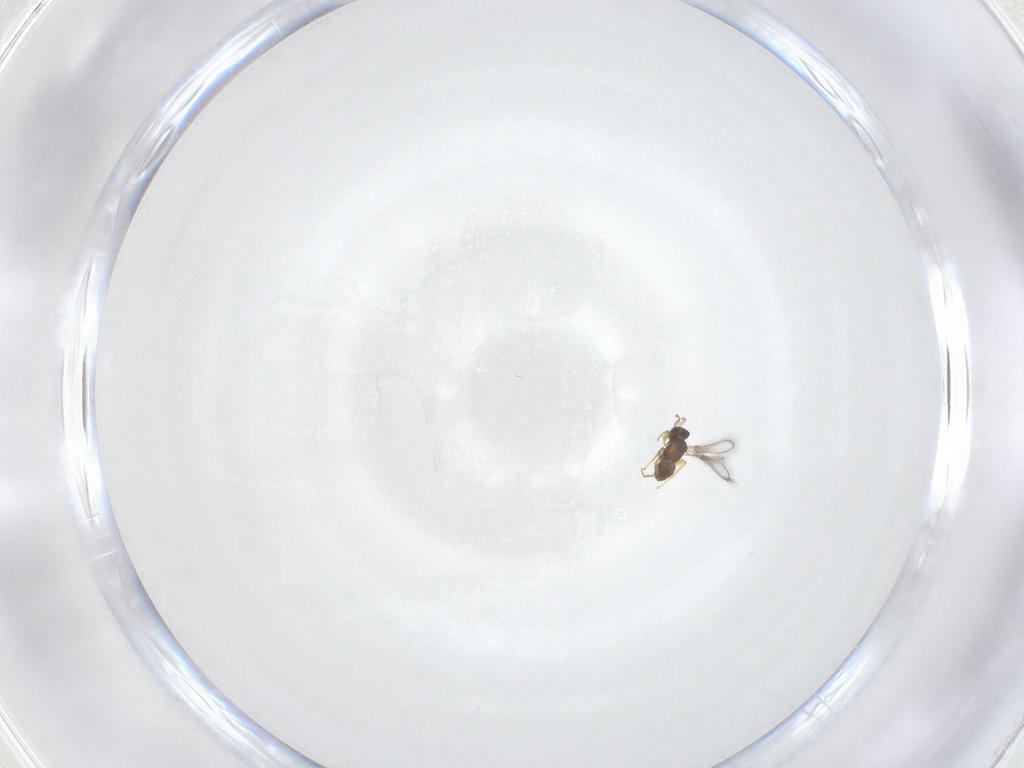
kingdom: Animalia
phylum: Arthropoda
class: Insecta
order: Hymenoptera
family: Mymaridae
